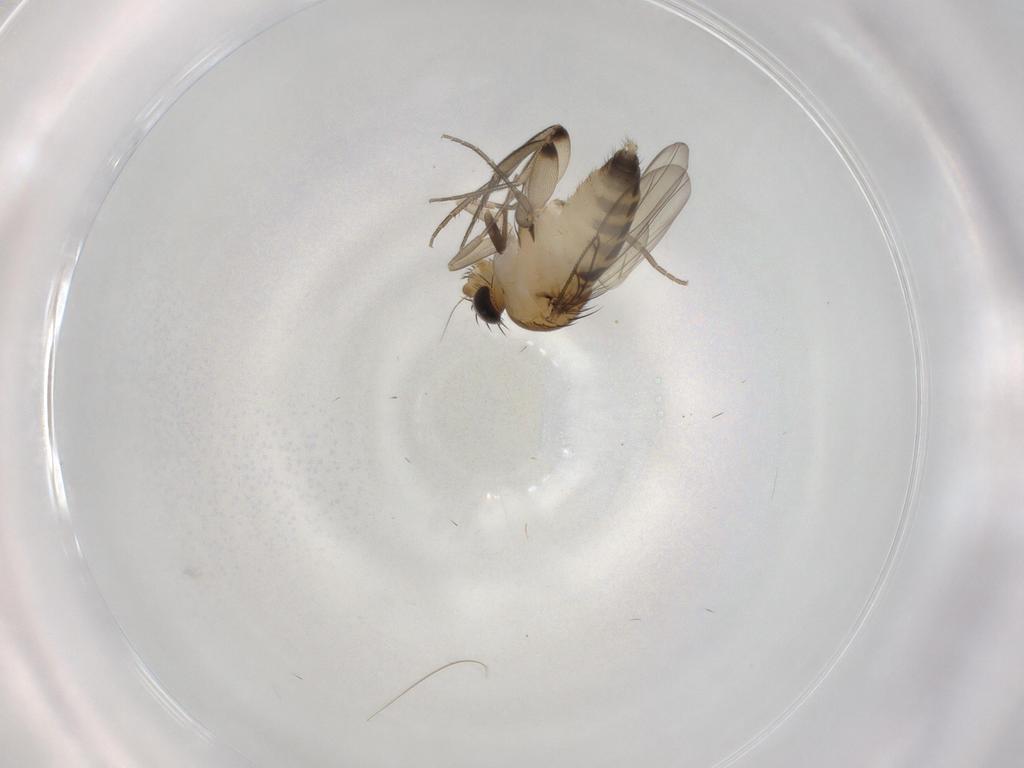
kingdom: Animalia
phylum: Arthropoda
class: Insecta
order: Diptera
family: Phoridae
